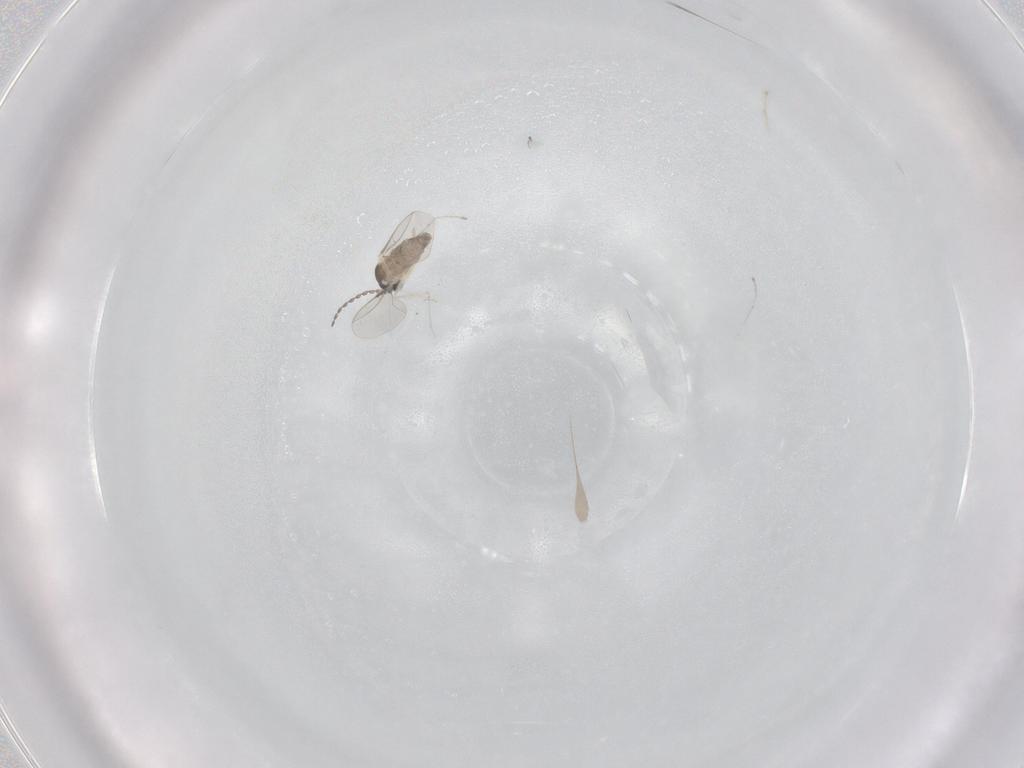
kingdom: Animalia
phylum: Arthropoda
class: Insecta
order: Diptera
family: Cecidomyiidae
